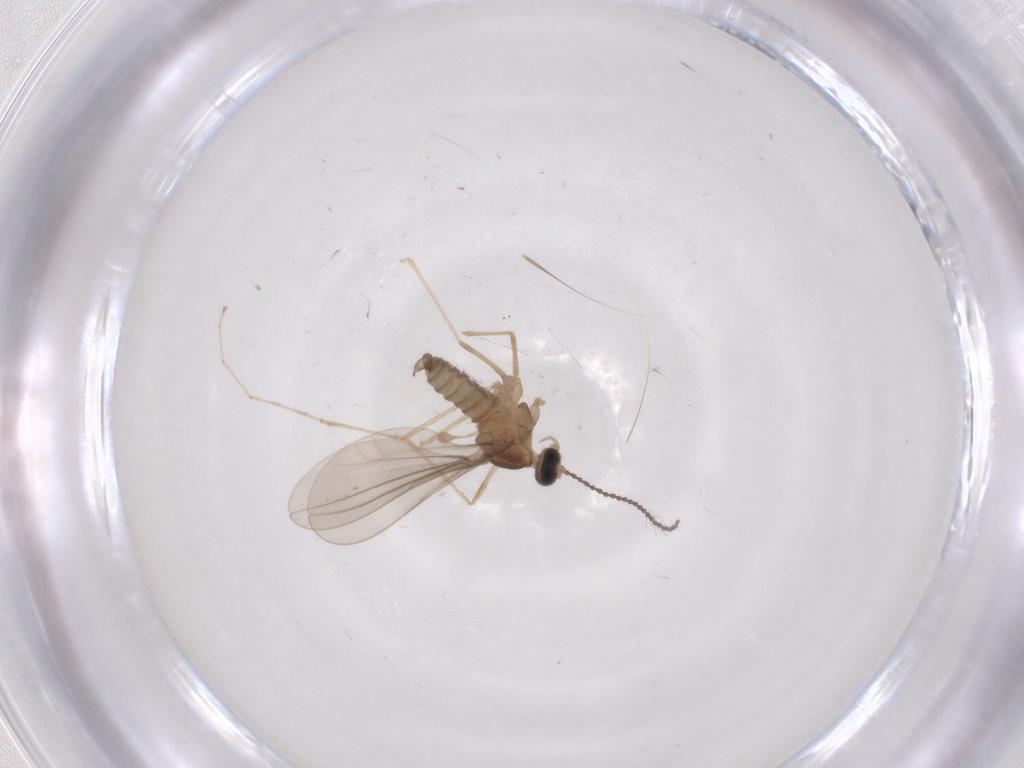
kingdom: Animalia
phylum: Arthropoda
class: Insecta
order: Diptera
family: Cecidomyiidae
